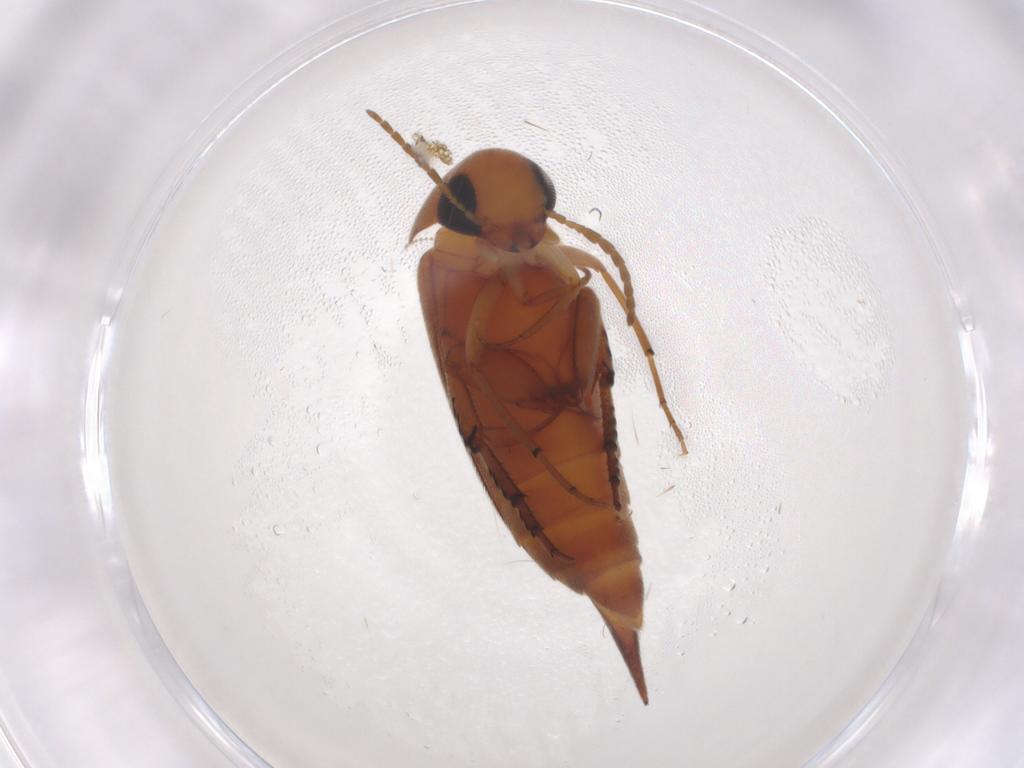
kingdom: Animalia
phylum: Arthropoda
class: Insecta
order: Coleoptera
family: Mordellidae
